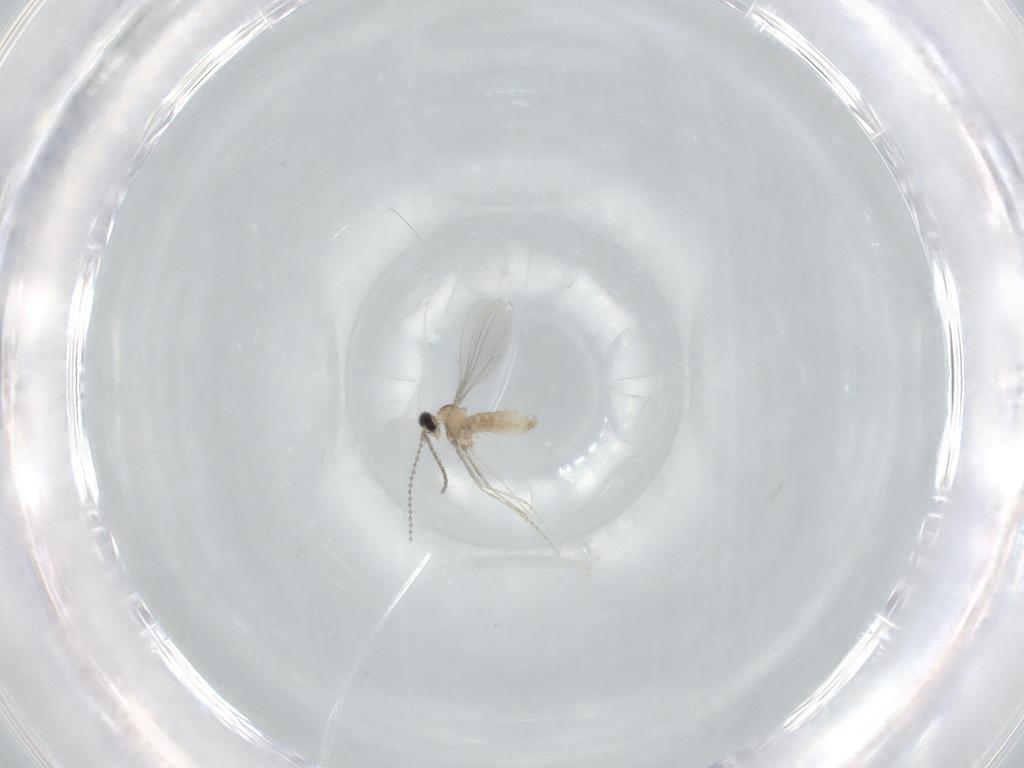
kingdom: Animalia
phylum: Arthropoda
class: Insecta
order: Diptera
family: Cecidomyiidae
